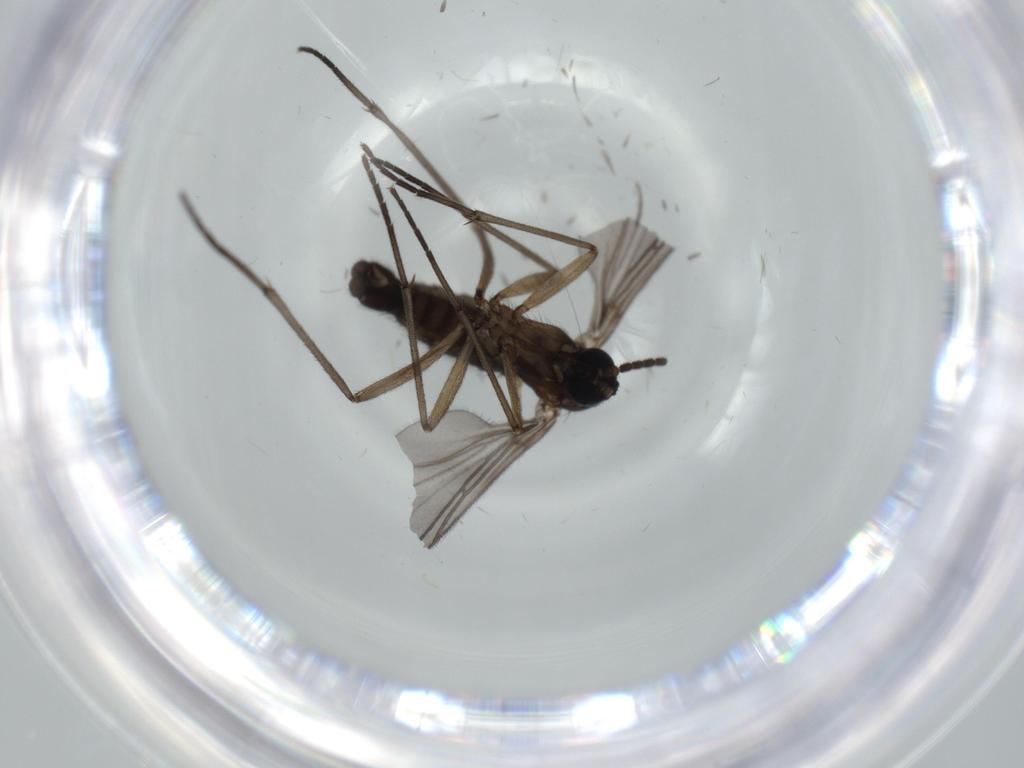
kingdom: Animalia
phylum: Arthropoda
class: Insecta
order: Diptera
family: Sciaridae
